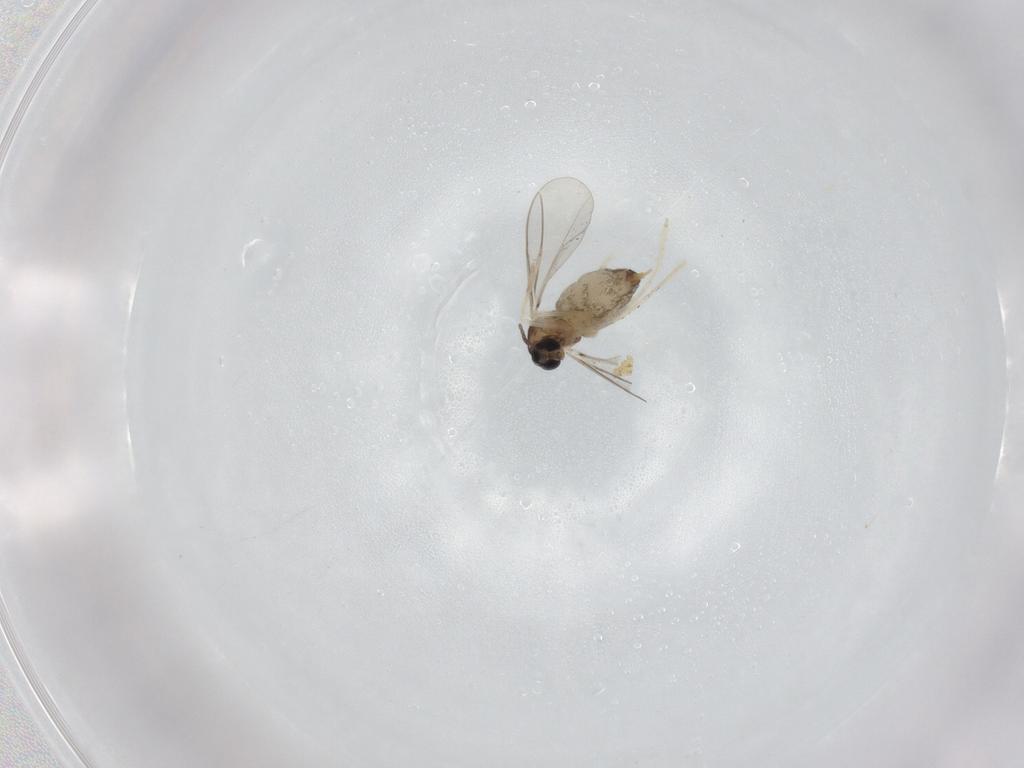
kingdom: Animalia
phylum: Arthropoda
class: Insecta
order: Diptera
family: Cecidomyiidae
